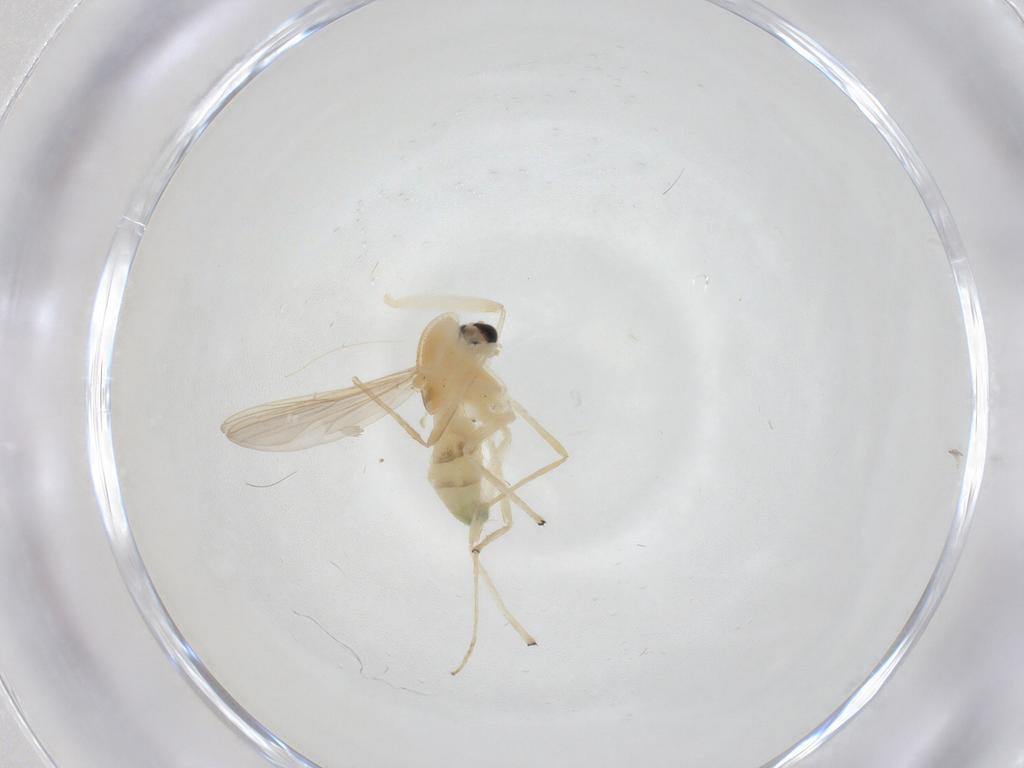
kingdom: Animalia
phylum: Arthropoda
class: Insecta
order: Diptera
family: Chironomidae
